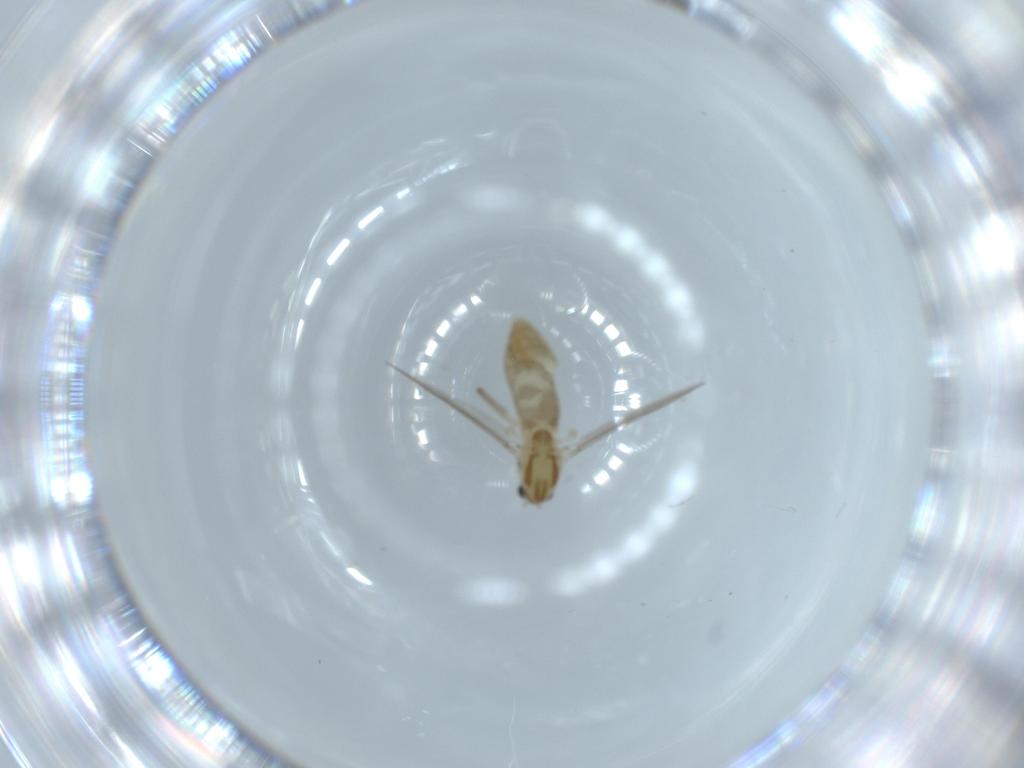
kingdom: Animalia
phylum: Arthropoda
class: Insecta
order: Diptera
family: Chironomidae
